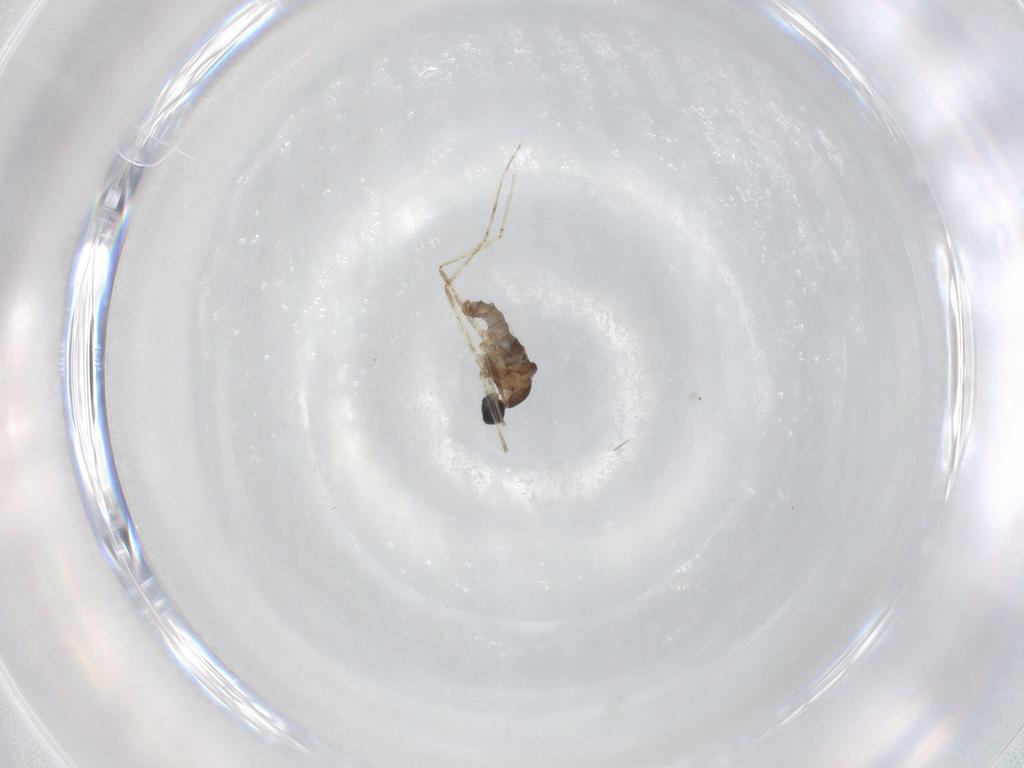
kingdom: Animalia
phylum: Arthropoda
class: Insecta
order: Diptera
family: Cecidomyiidae
